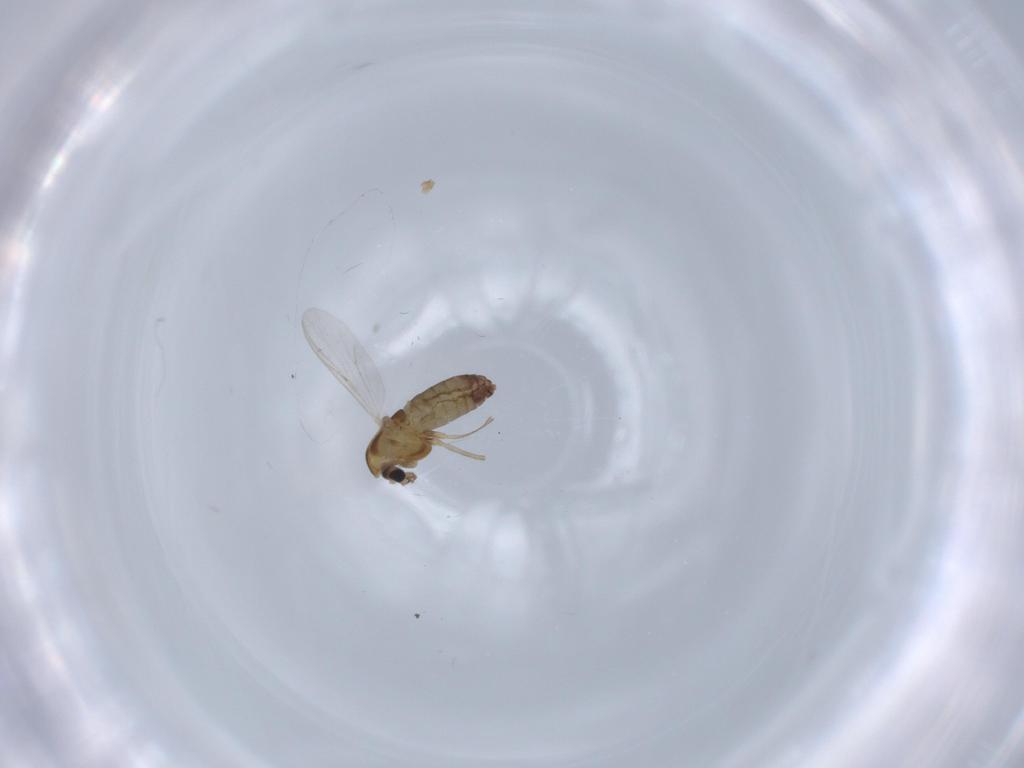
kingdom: Animalia
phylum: Arthropoda
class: Insecta
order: Diptera
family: Chironomidae
